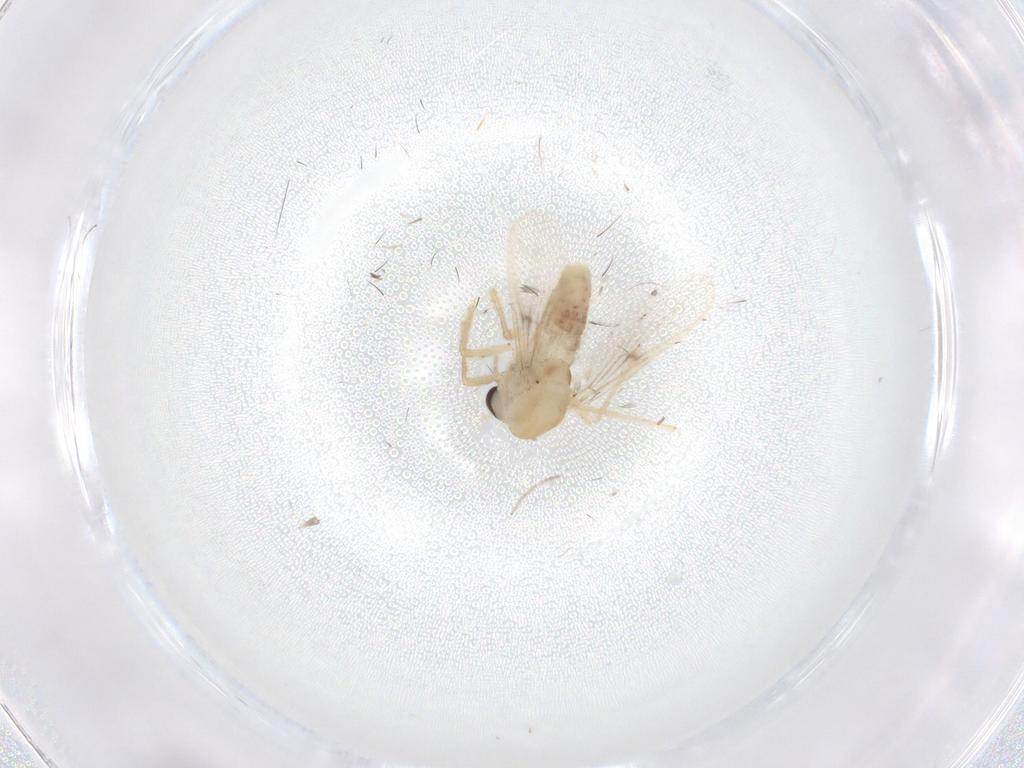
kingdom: Animalia
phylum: Arthropoda
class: Insecta
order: Diptera
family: Chironomidae
